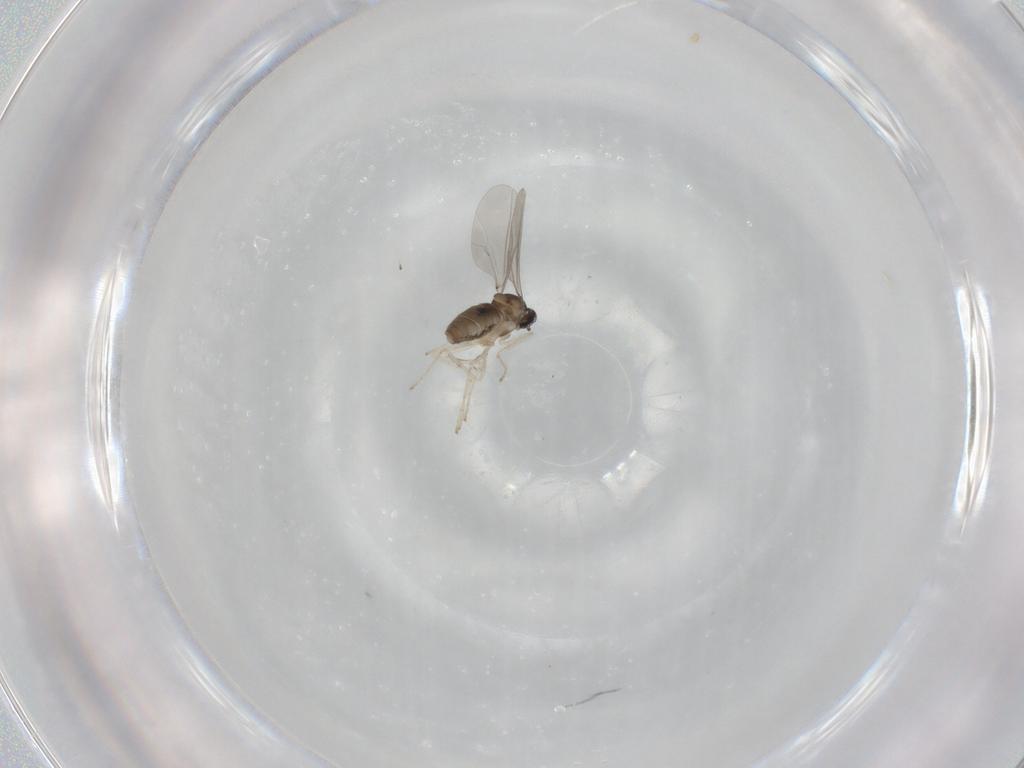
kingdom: Animalia
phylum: Arthropoda
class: Insecta
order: Diptera
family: Cecidomyiidae
